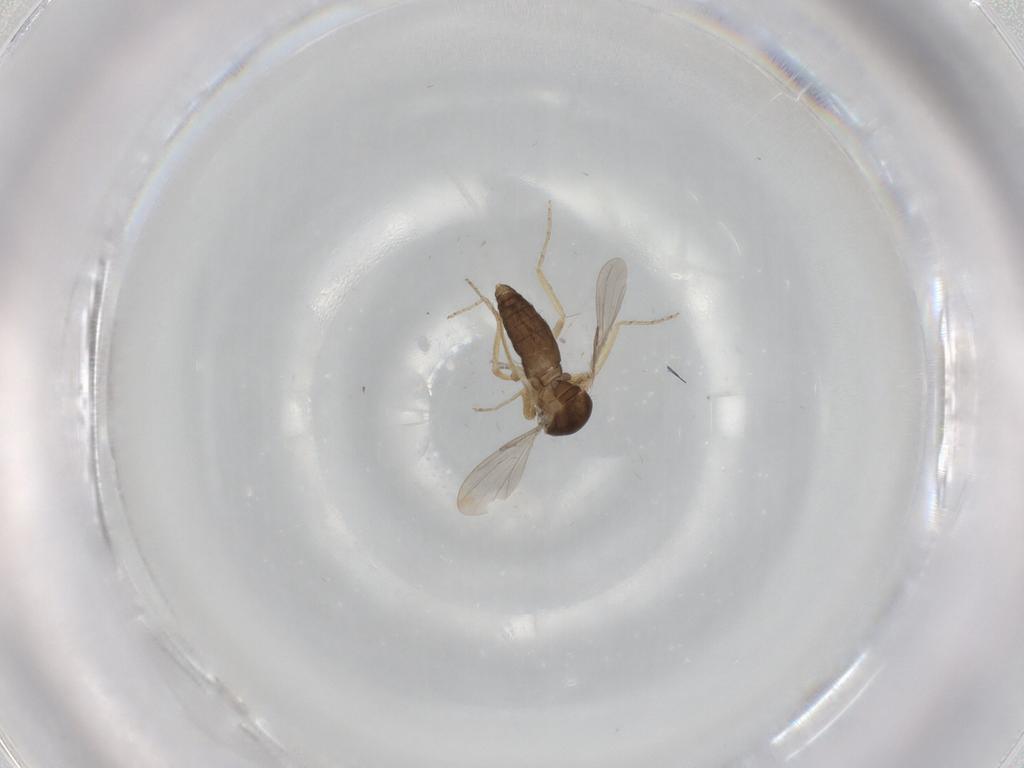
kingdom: Animalia
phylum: Arthropoda
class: Insecta
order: Diptera
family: Ceratopogonidae
